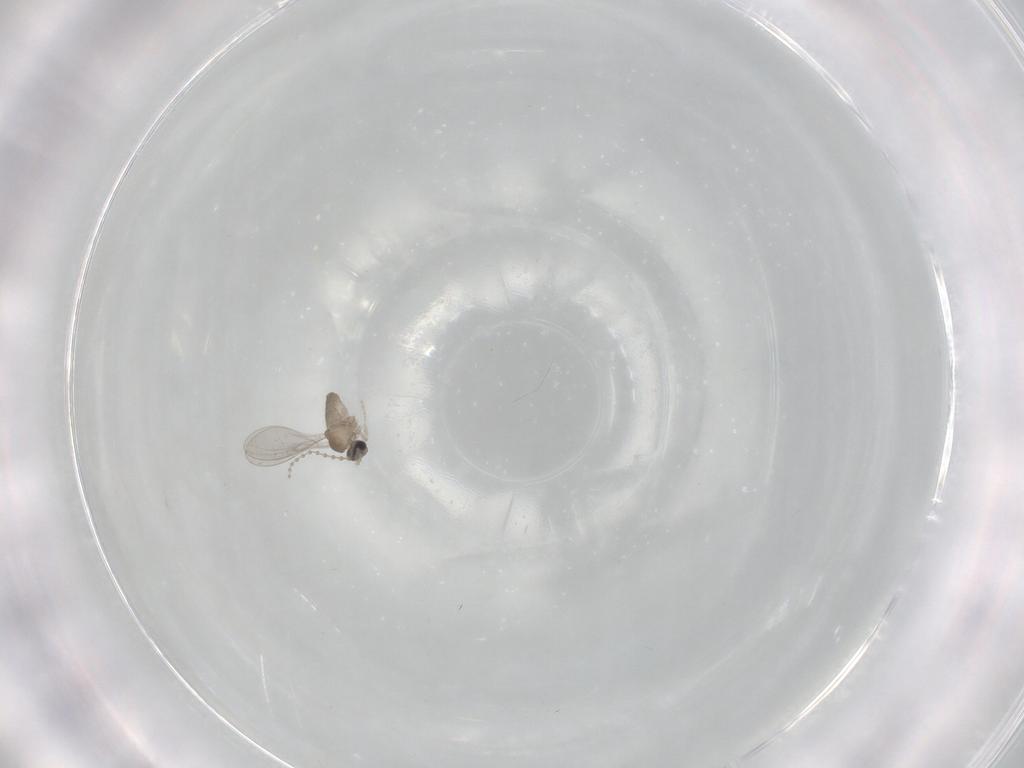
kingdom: Animalia
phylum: Arthropoda
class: Insecta
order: Diptera
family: Cecidomyiidae
